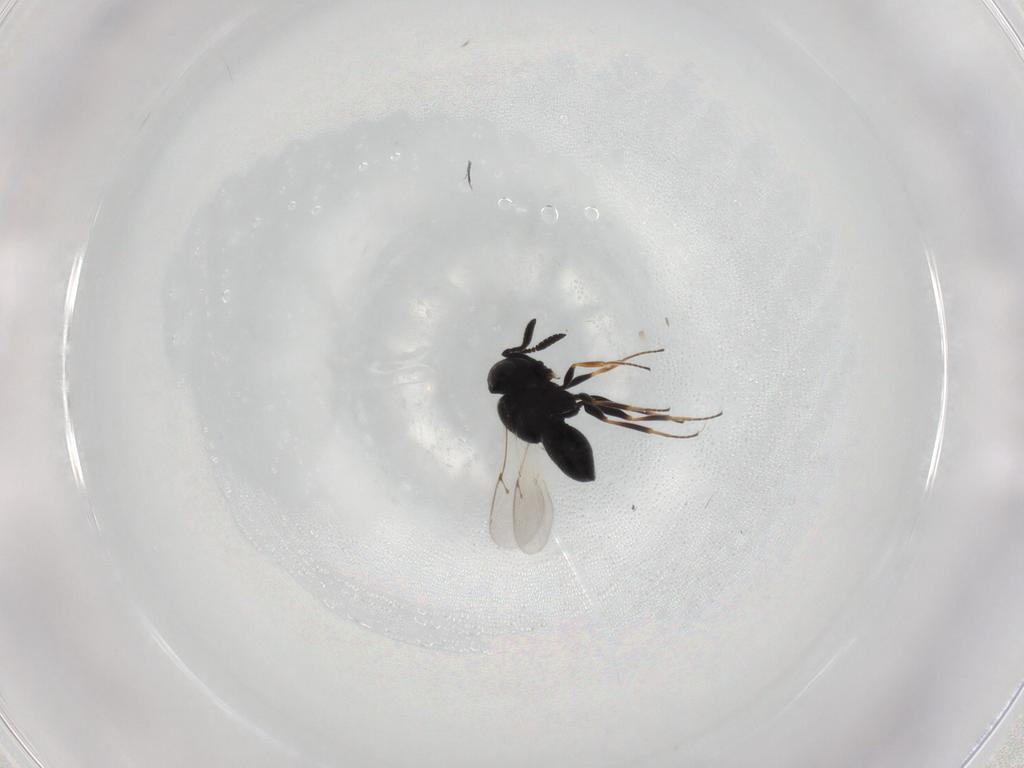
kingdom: Animalia
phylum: Arthropoda
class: Insecta
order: Hymenoptera
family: Scelionidae
